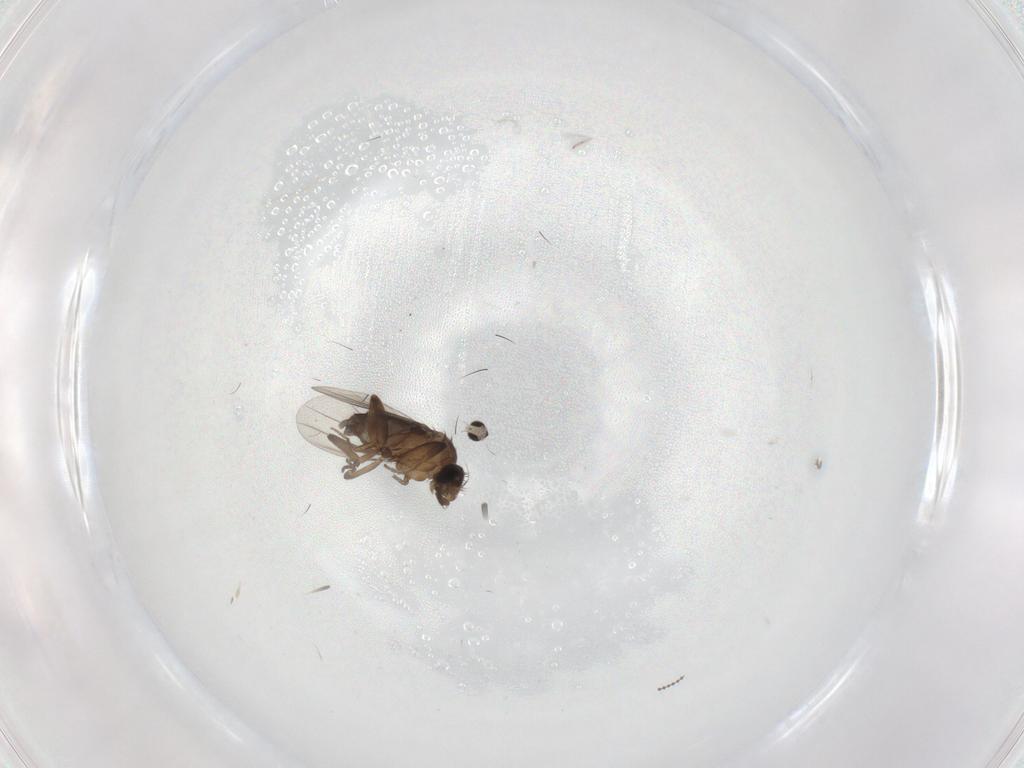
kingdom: Animalia
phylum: Arthropoda
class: Insecta
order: Diptera
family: Cecidomyiidae
